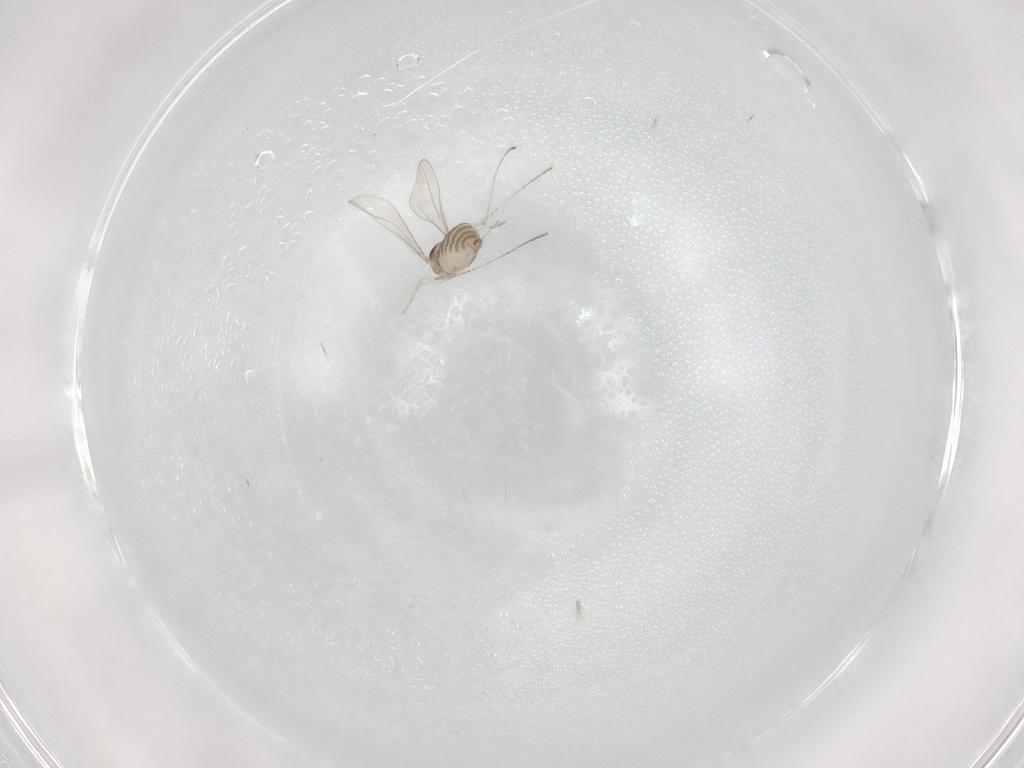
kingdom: Animalia
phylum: Arthropoda
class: Insecta
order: Diptera
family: Cecidomyiidae
